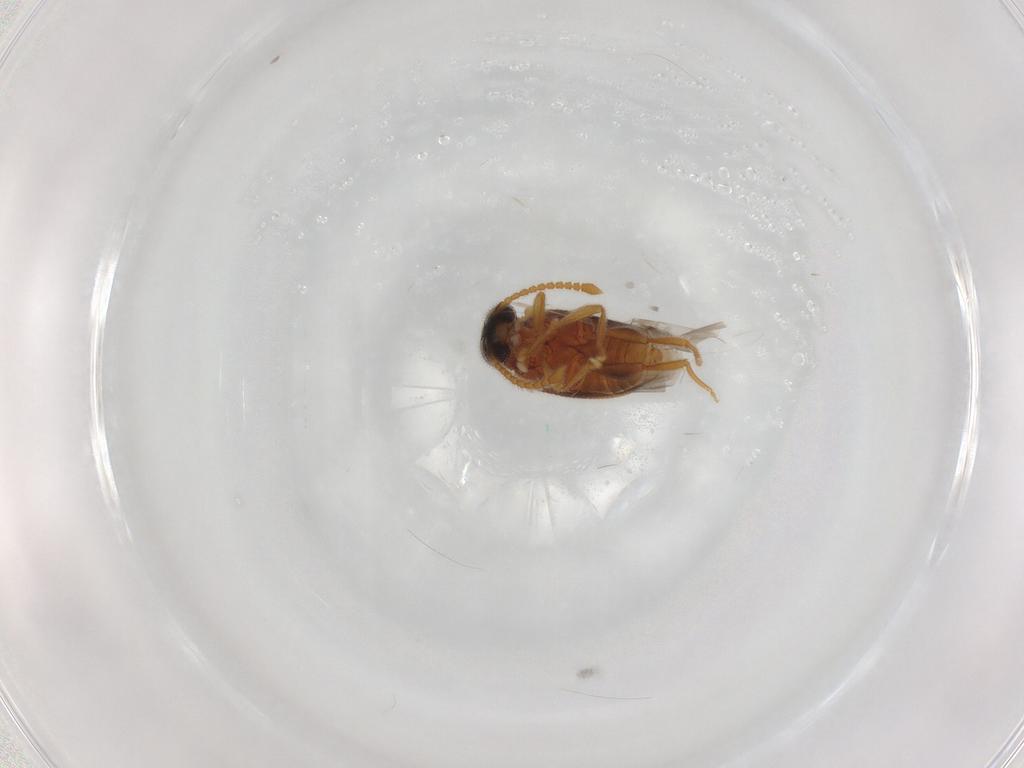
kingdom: Animalia
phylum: Arthropoda
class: Insecta
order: Coleoptera
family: Aderidae
